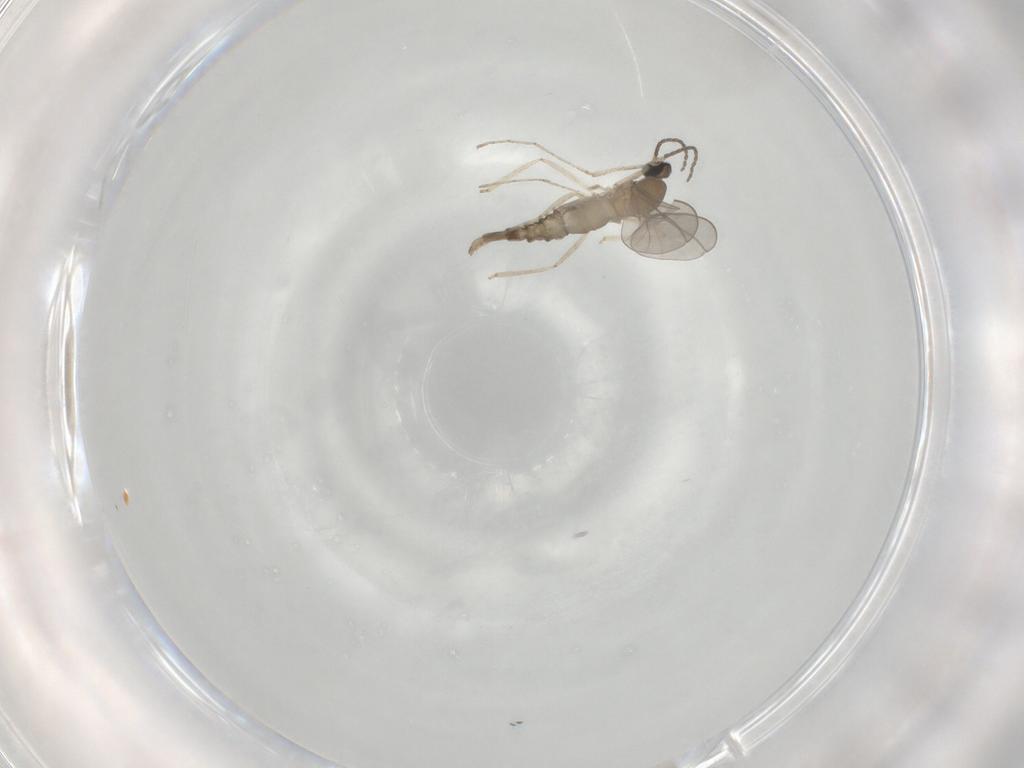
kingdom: Animalia
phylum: Arthropoda
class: Insecta
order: Diptera
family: Cecidomyiidae
